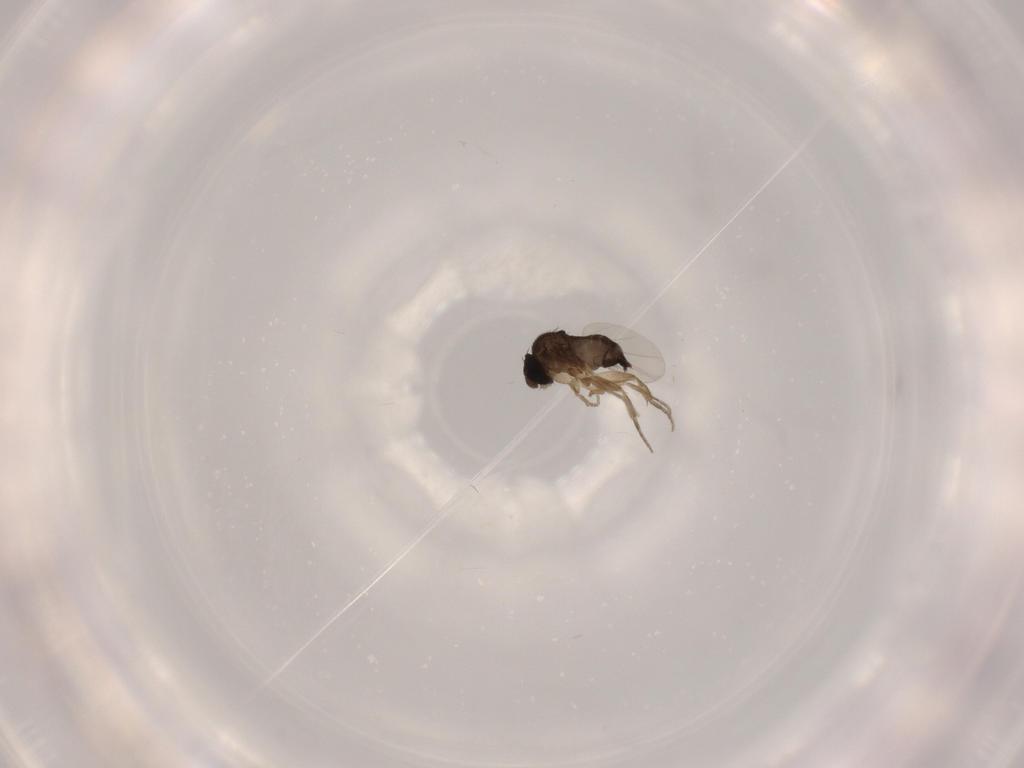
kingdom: Animalia
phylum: Arthropoda
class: Insecta
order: Diptera
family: Phoridae
